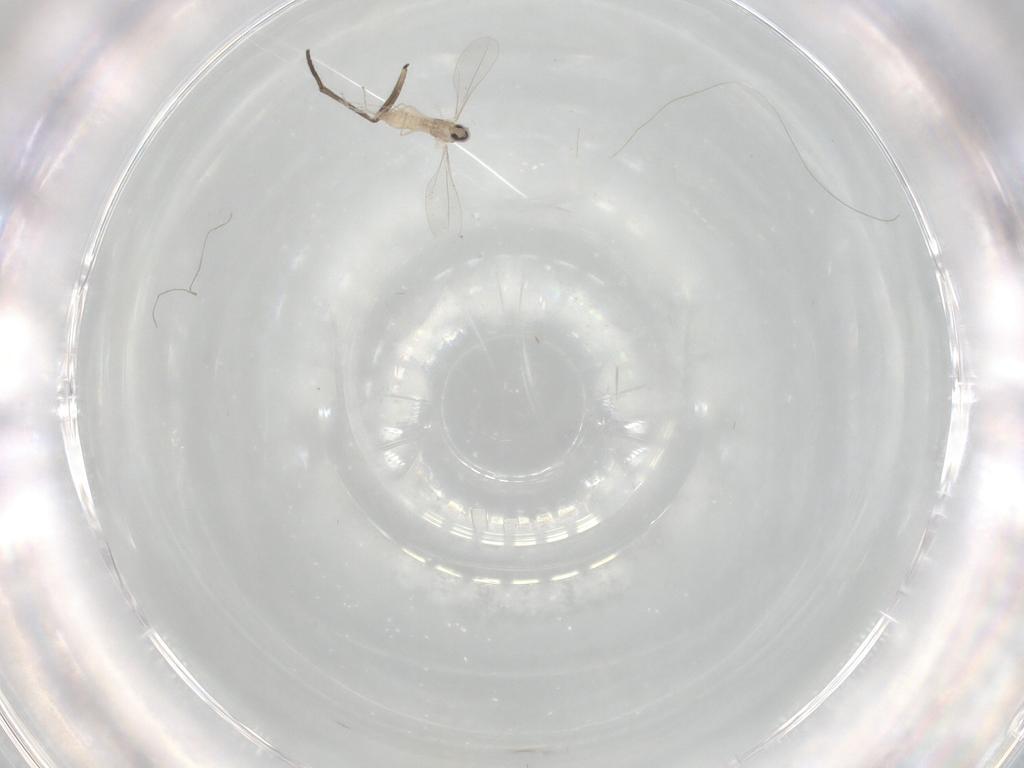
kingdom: Animalia
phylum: Arthropoda
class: Insecta
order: Diptera
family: Sciaridae
